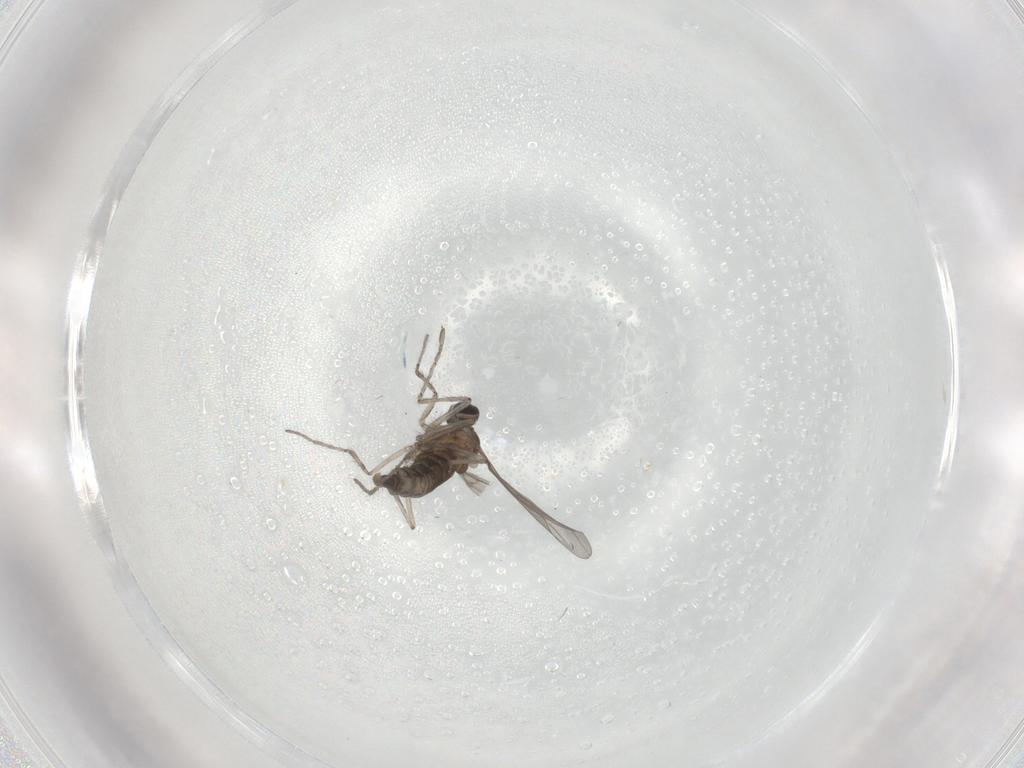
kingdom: Animalia
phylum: Arthropoda
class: Insecta
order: Diptera
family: Cecidomyiidae
